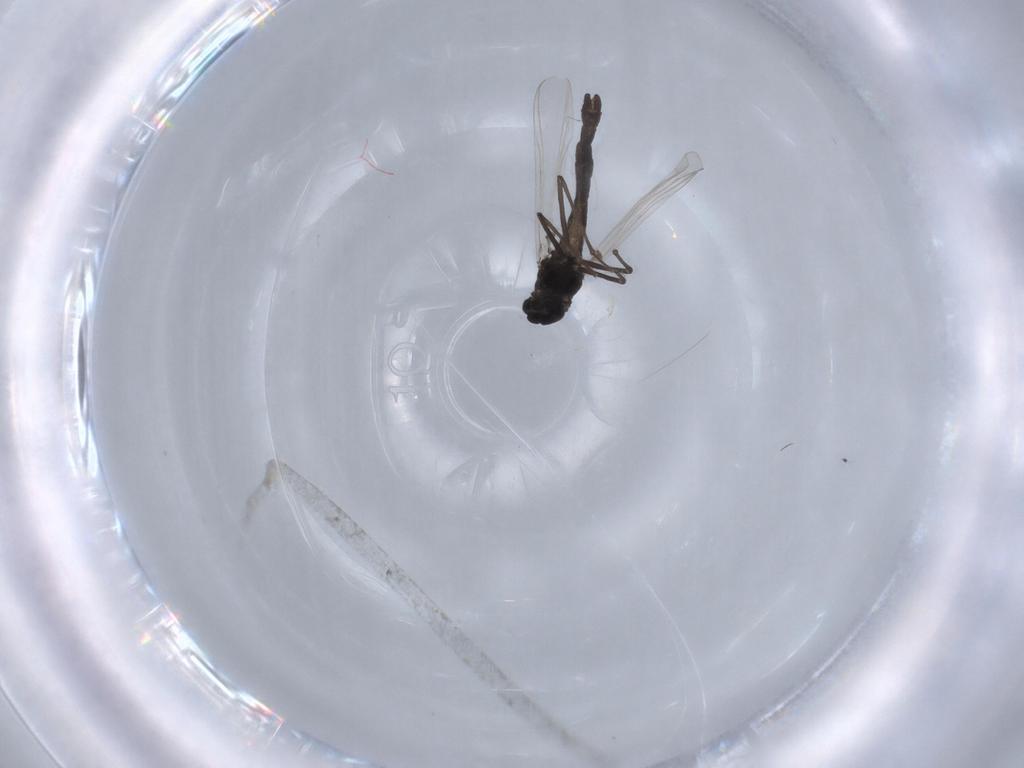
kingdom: Animalia
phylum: Arthropoda
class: Insecta
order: Diptera
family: Chironomidae
